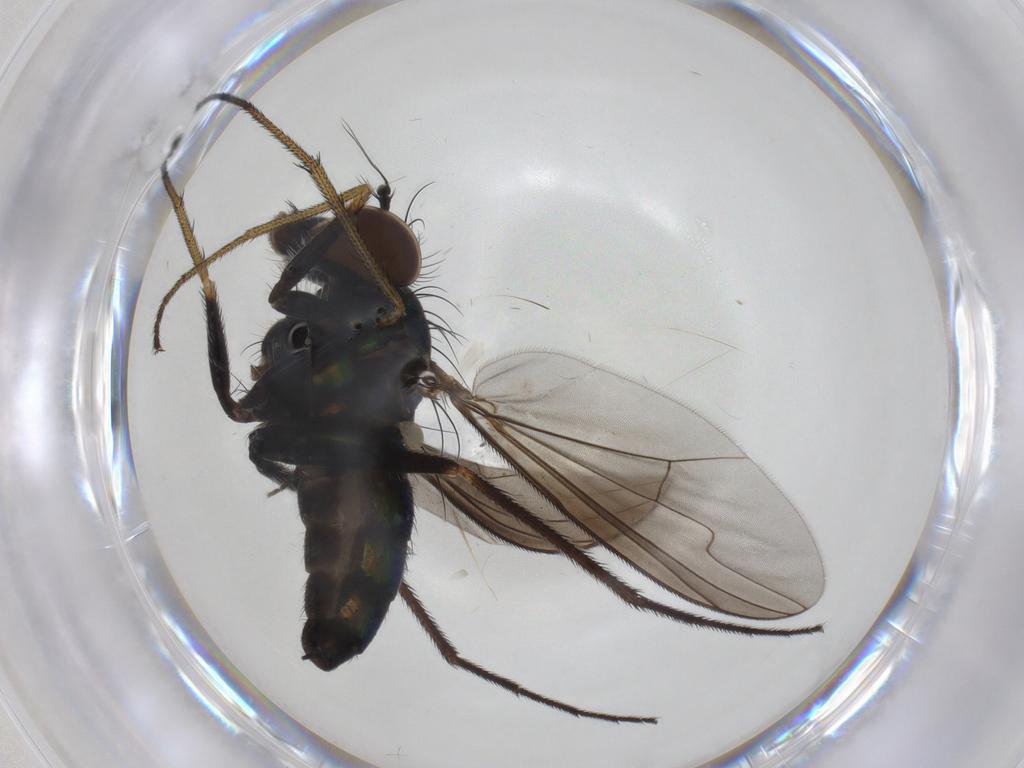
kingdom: Animalia
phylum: Arthropoda
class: Insecta
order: Diptera
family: Dolichopodidae
